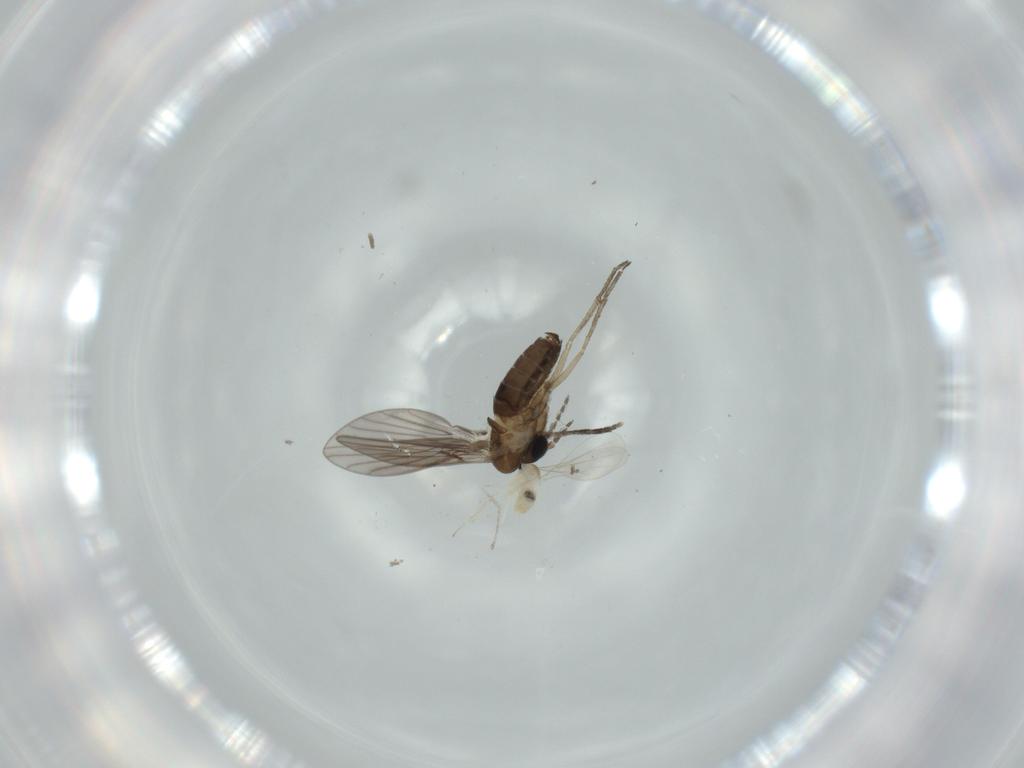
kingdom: Animalia
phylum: Arthropoda
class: Insecta
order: Diptera
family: Cecidomyiidae
